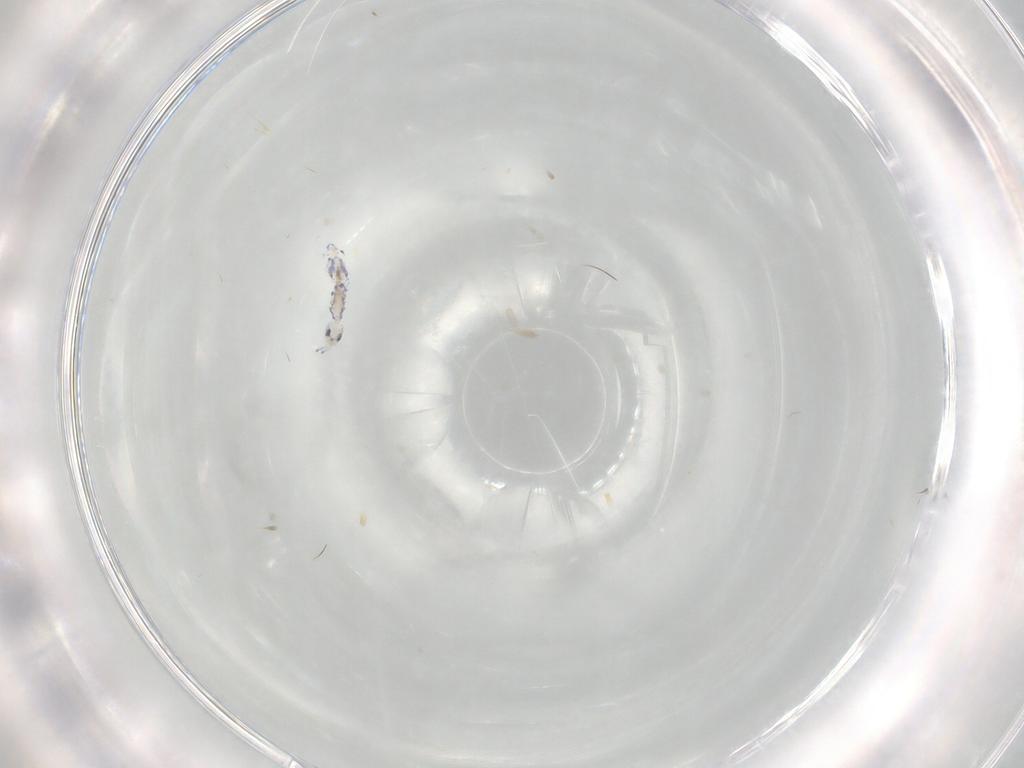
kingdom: Animalia
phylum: Arthropoda
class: Collembola
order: Entomobryomorpha
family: Tomoceridae
